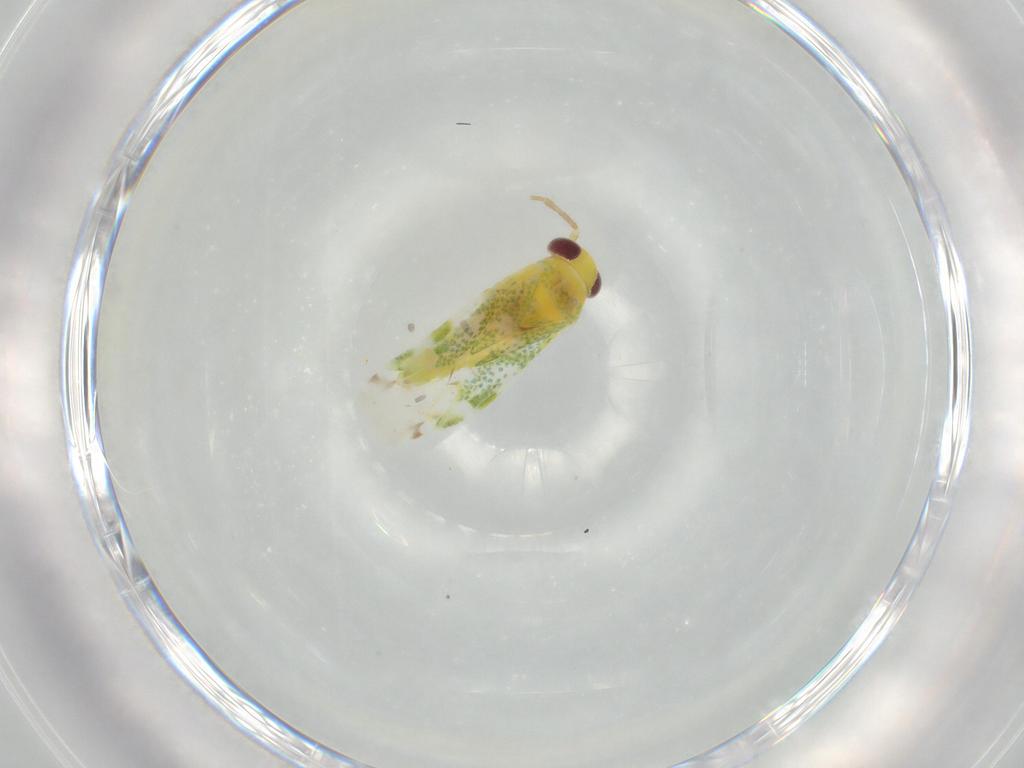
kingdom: Animalia
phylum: Arthropoda
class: Insecta
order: Hemiptera
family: Miridae
